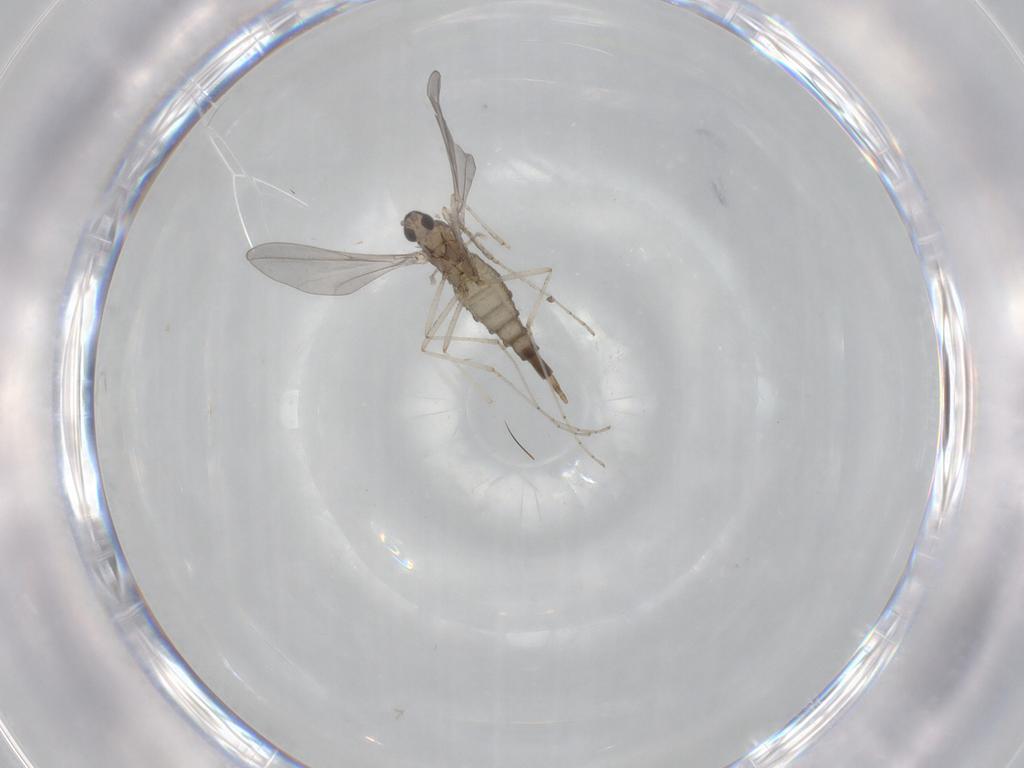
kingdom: Animalia
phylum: Arthropoda
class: Insecta
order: Diptera
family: Cecidomyiidae
